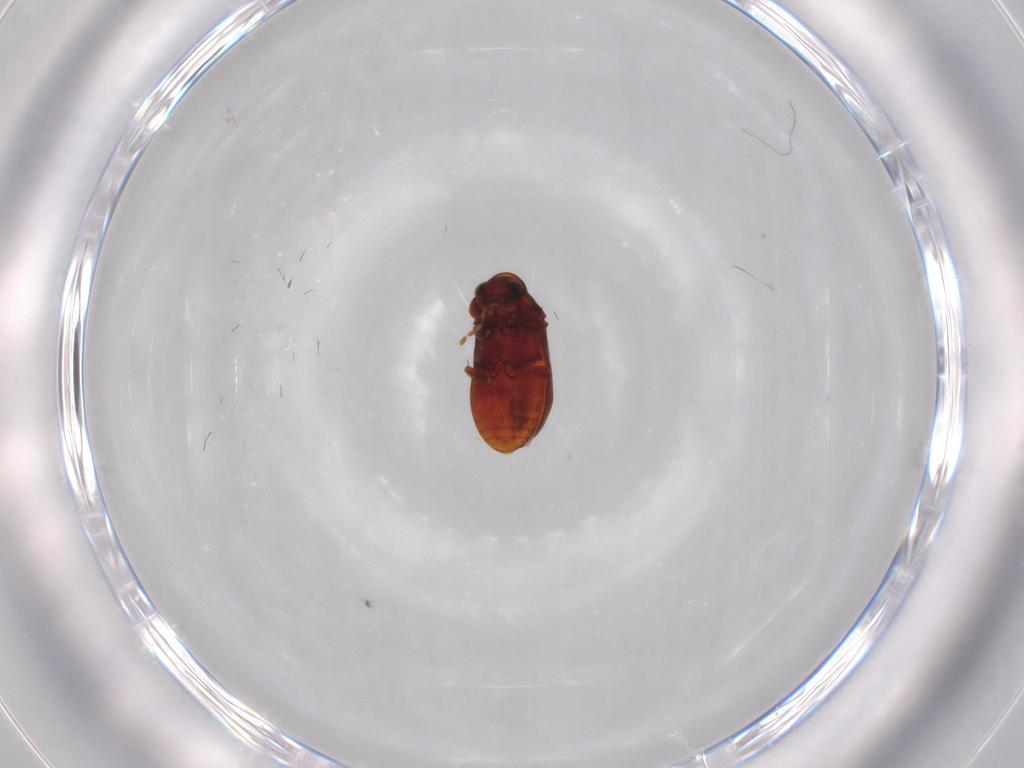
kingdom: Animalia
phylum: Arthropoda
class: Insecta
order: Coleoptera
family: Ptinidae
